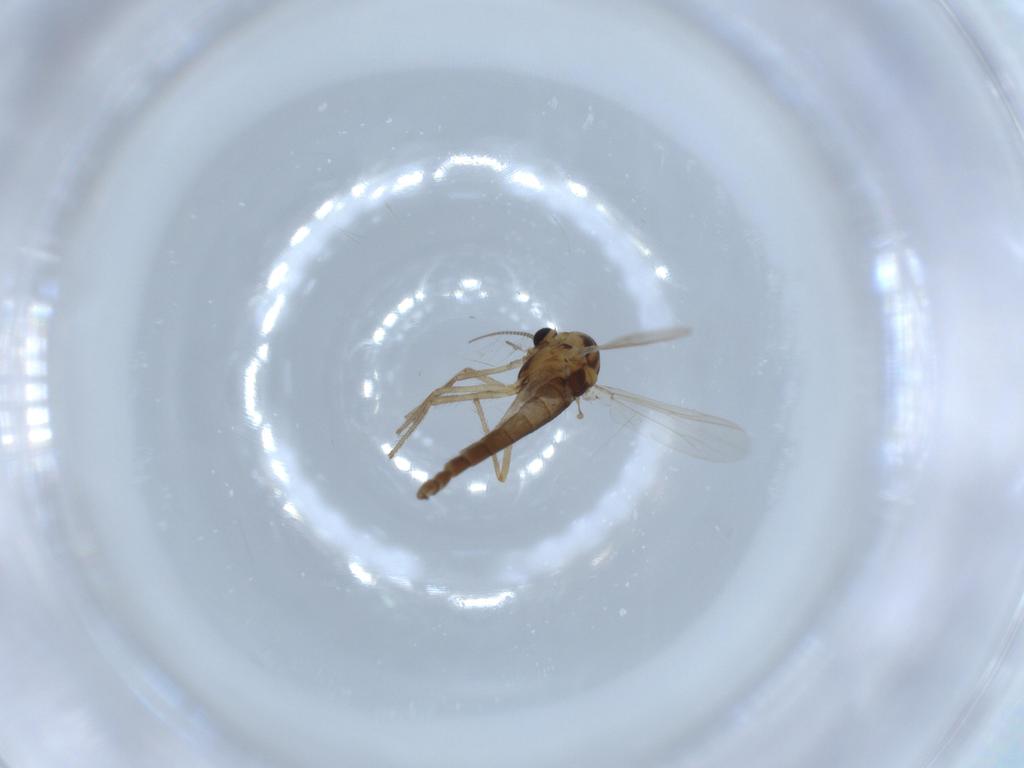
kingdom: Animalia
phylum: Arthropoda
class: Insecta
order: Diptera
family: Chironomidae
